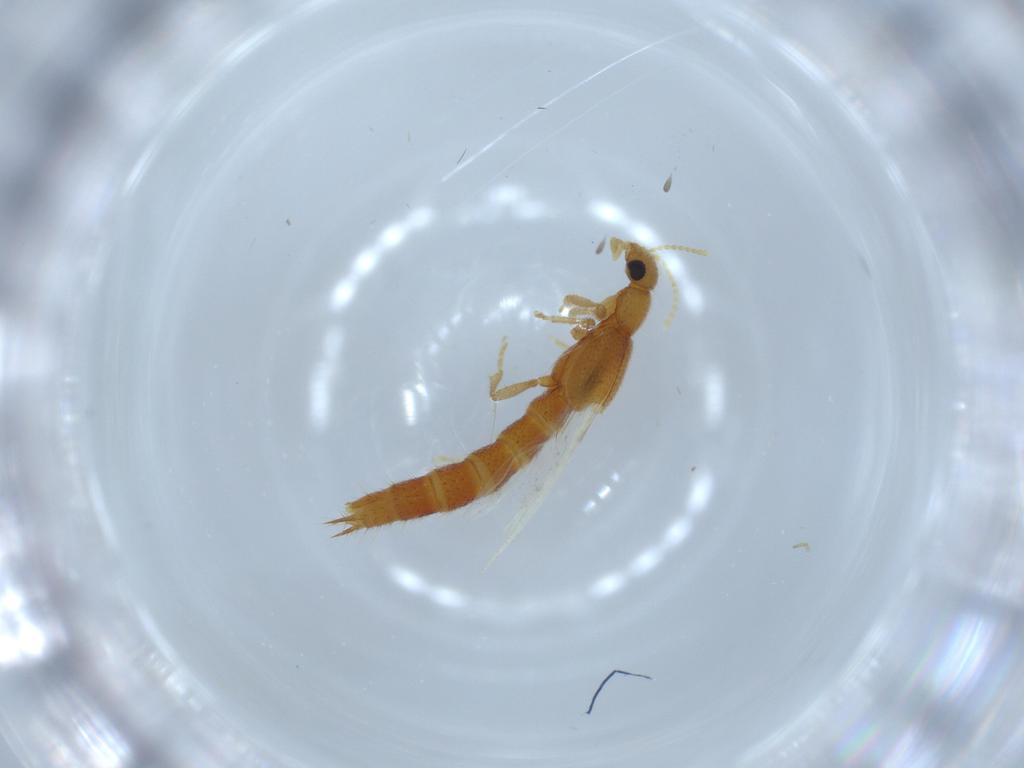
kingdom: Animalia
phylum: Arthropoda
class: Insecta
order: Coleoptera
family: Staphylinidae
